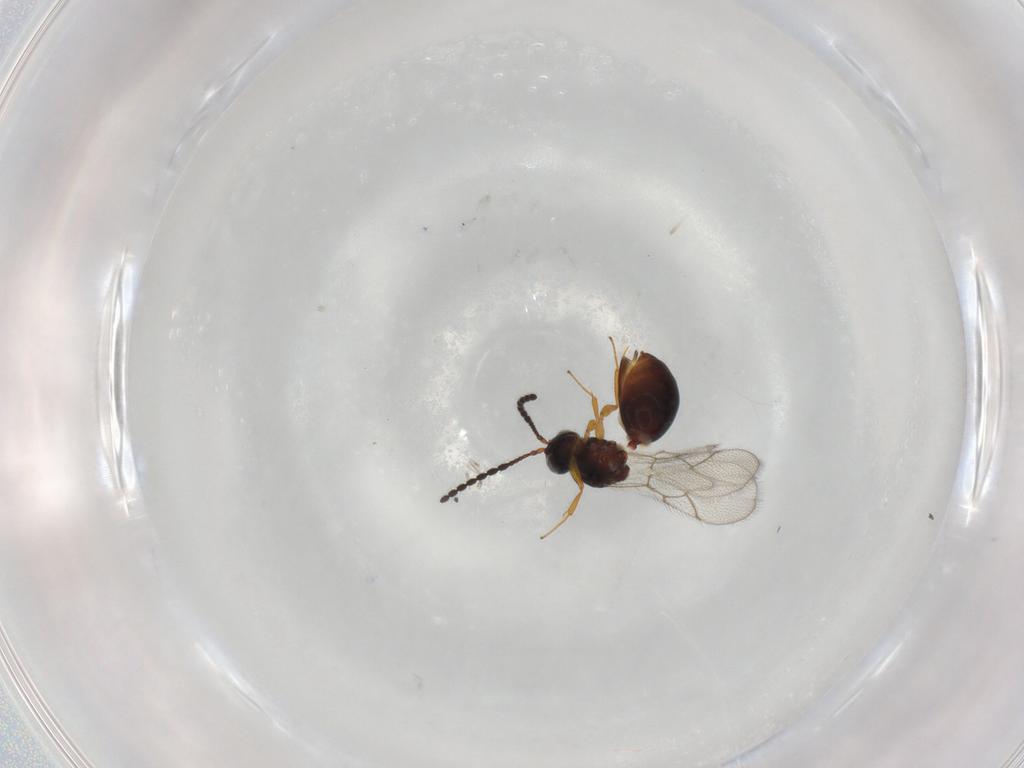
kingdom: Animalia
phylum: Arthropoda
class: Insecta
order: Hymenoptera
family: Figitidae
